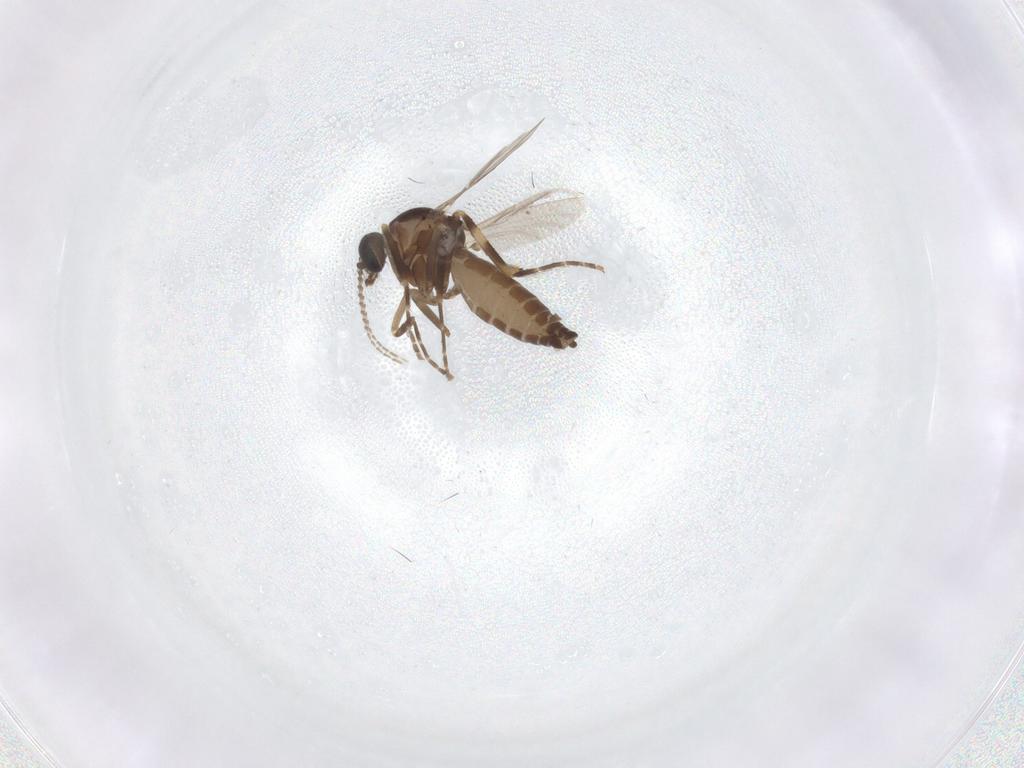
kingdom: Animalia
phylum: Arthropoda
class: Insecta
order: Diptera
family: Ceratopogonidae
